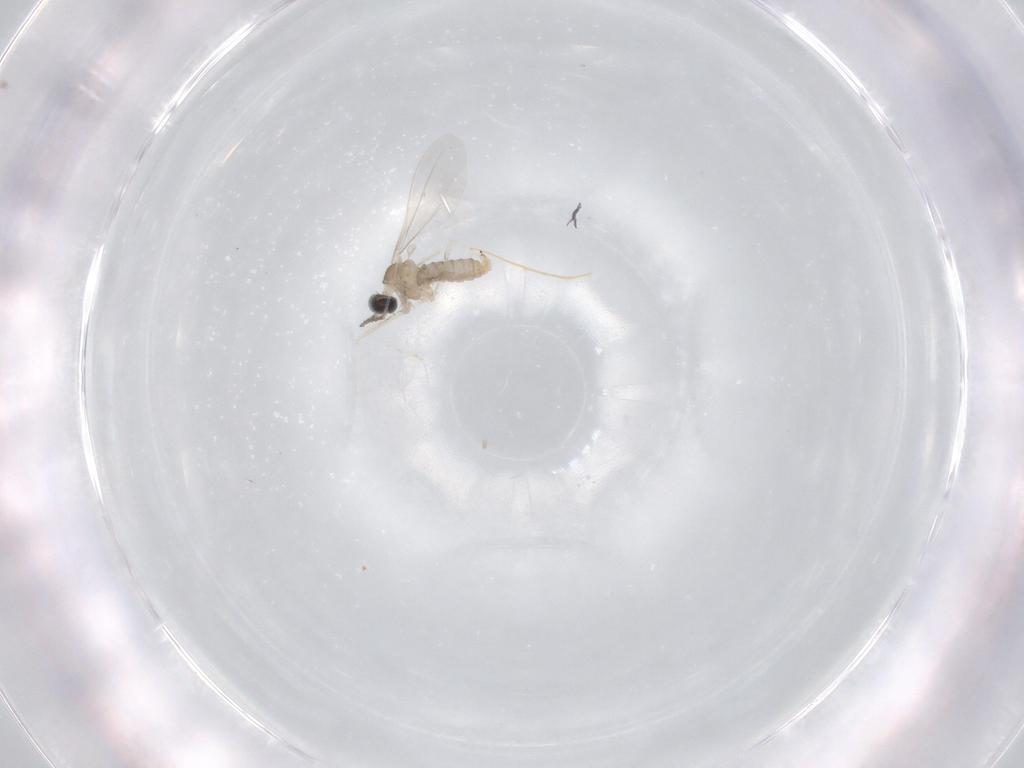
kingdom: Animalia
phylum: Arthropoda
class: Insecta
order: Diptera
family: Cecidomyiidae
